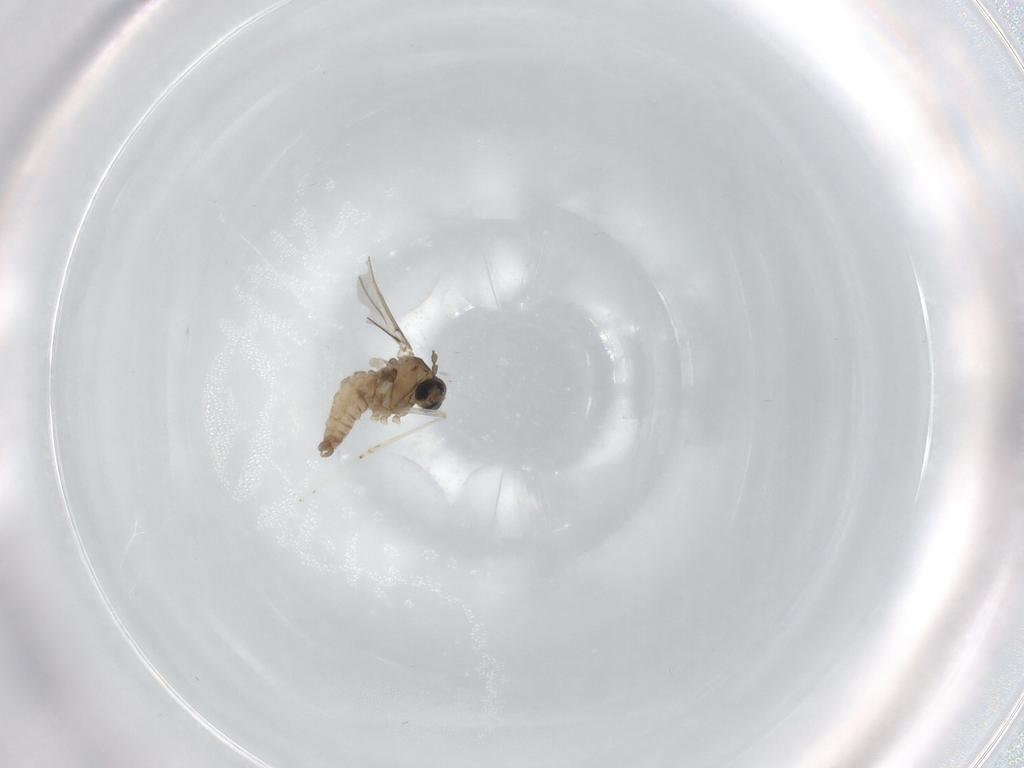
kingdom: Animalia
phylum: Arthropoda
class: Insecta
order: Diptera
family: Cecidomyiidae
